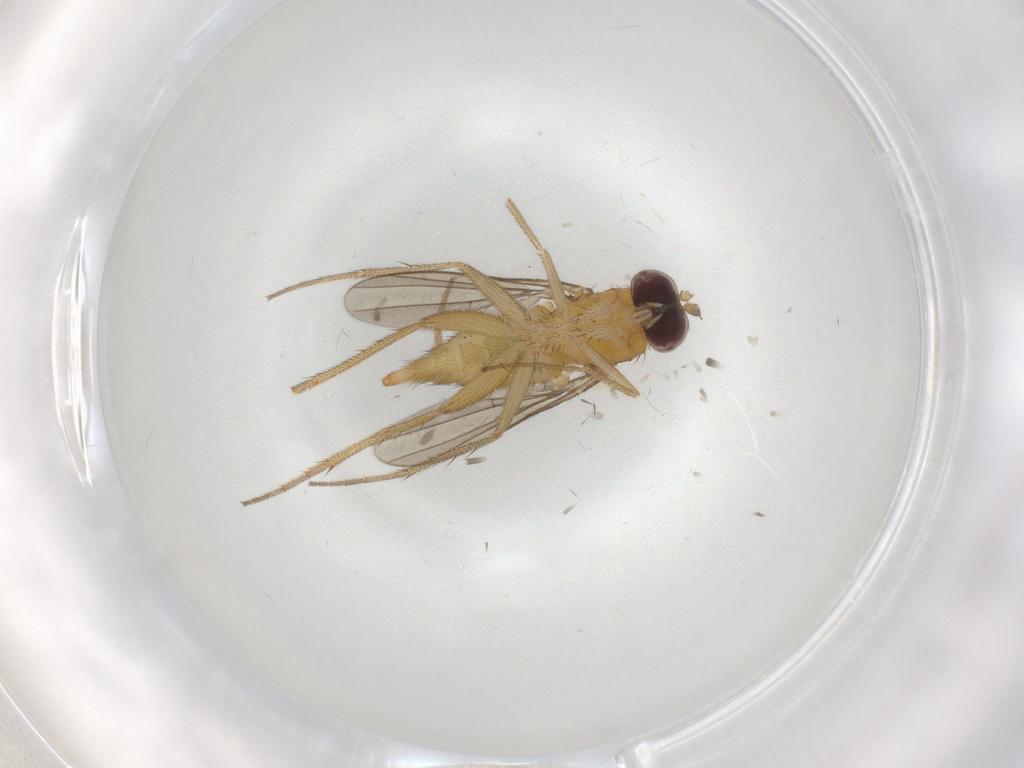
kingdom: Animalia
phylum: Arthropoda
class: Insecta
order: Diptera
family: Dolichopodidae
